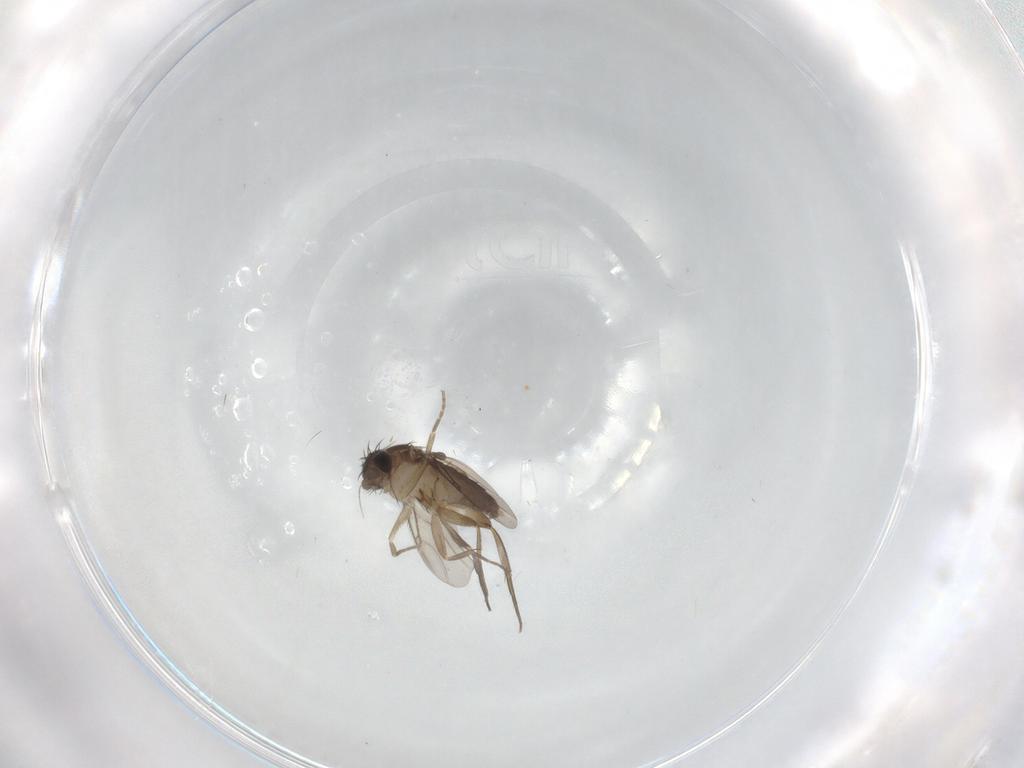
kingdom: Animalia
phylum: Arthropoda
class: Insecta
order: Diptera
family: Phoridae
